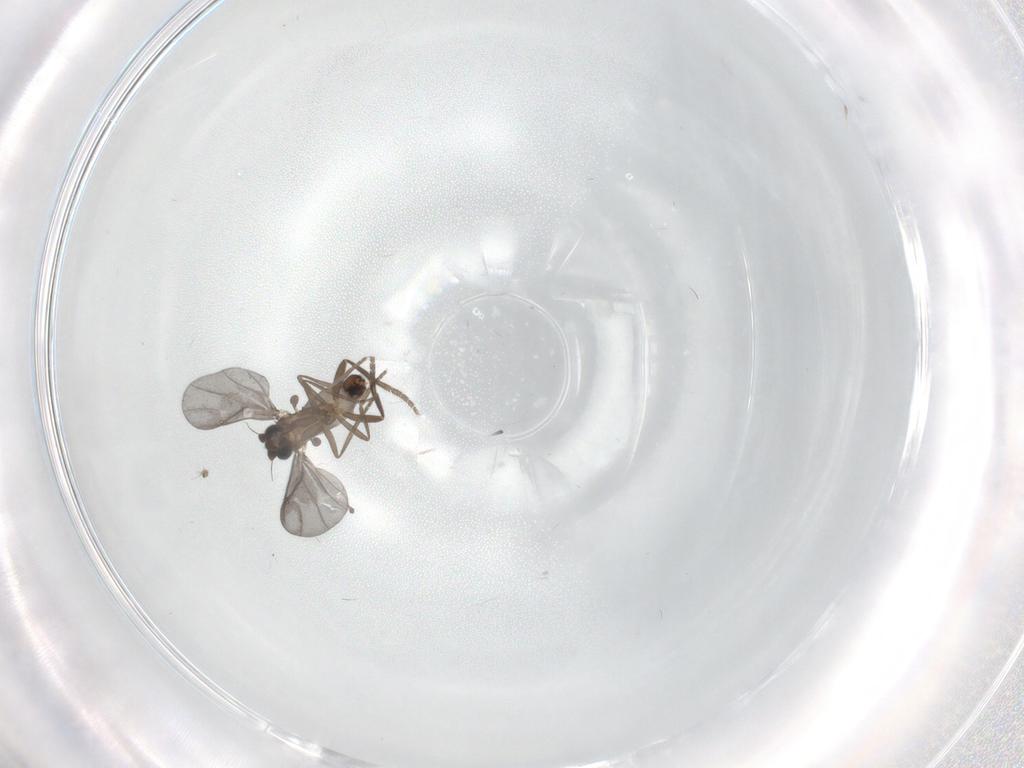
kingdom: Animalia
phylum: Arthropoda
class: Insecta
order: Diptera
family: Cecidomyiidae
